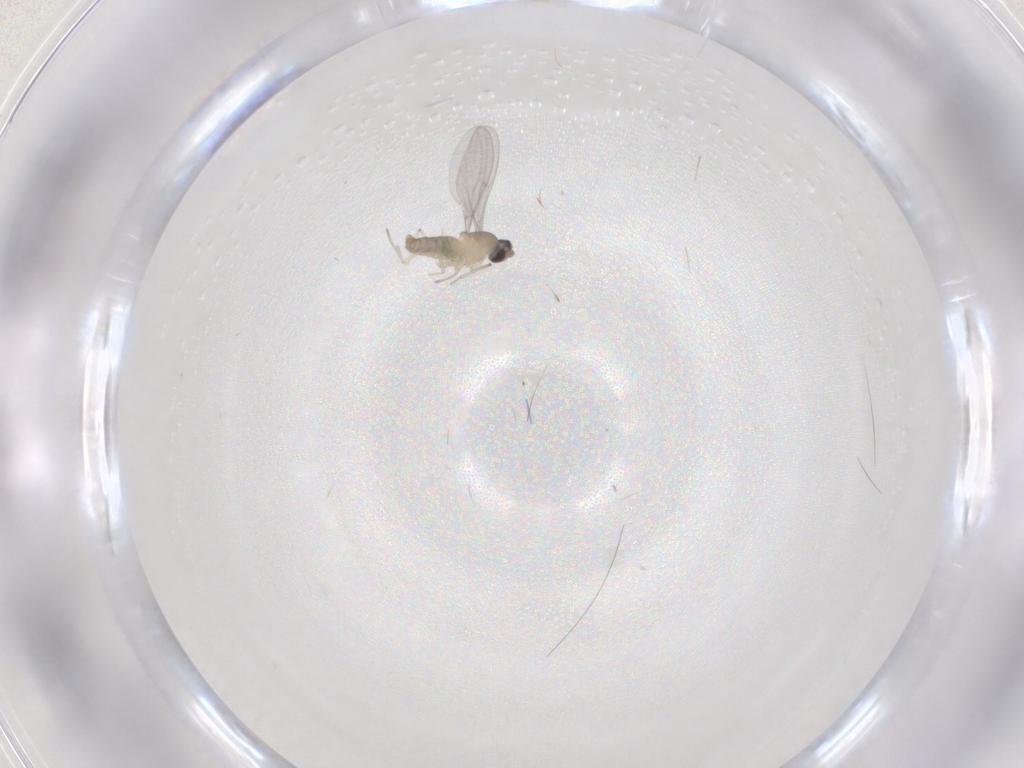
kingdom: Animalia
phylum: Arthropoda
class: Insecta
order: Diptera
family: Cecidomyiidae
